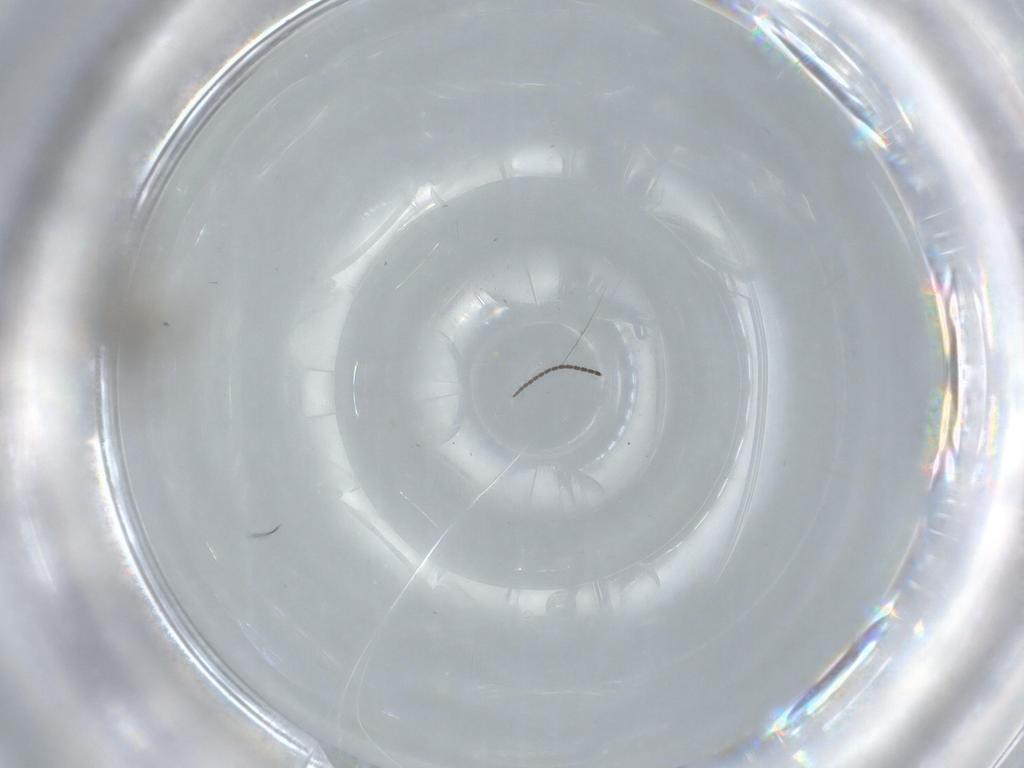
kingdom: Animalia
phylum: Arthropoda
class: Insecta
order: Diptera
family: Sciaridae
